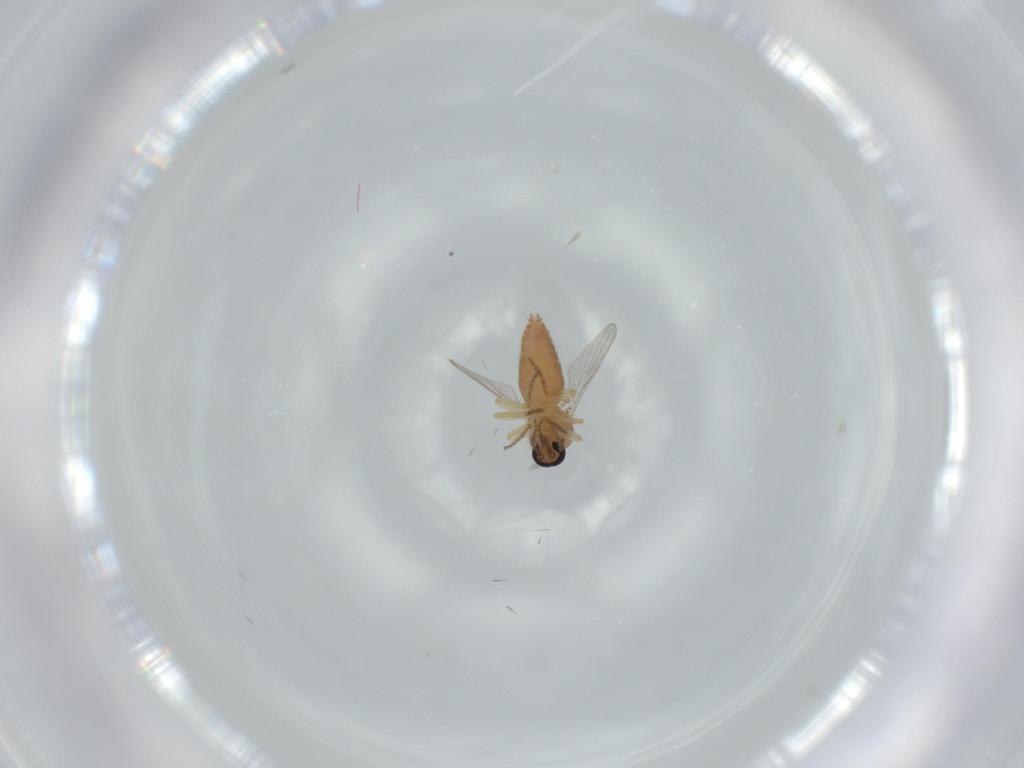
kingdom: Animalia
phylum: Arthropoda
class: Insecta
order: Diptera
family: Ceratopogonidae
